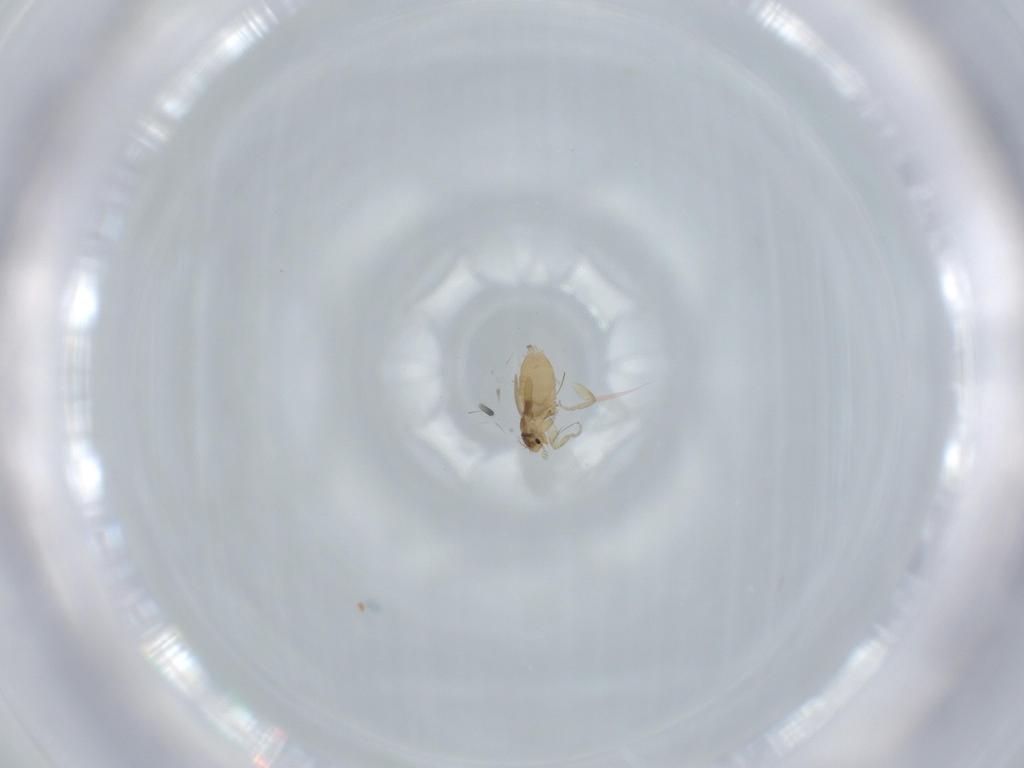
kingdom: Animalia
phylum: Arthropoda
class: Insecta
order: Diptera
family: Phoridae
